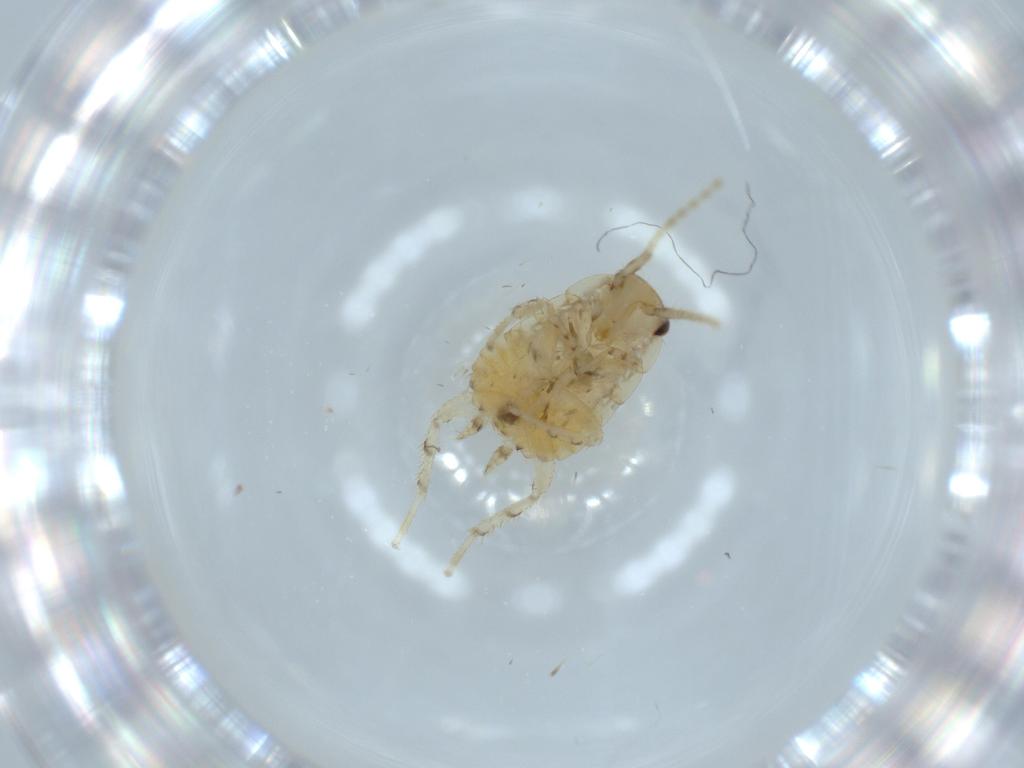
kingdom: Animalia
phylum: Arthropoda
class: Insecta
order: Blattodea
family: Ectobiidae
